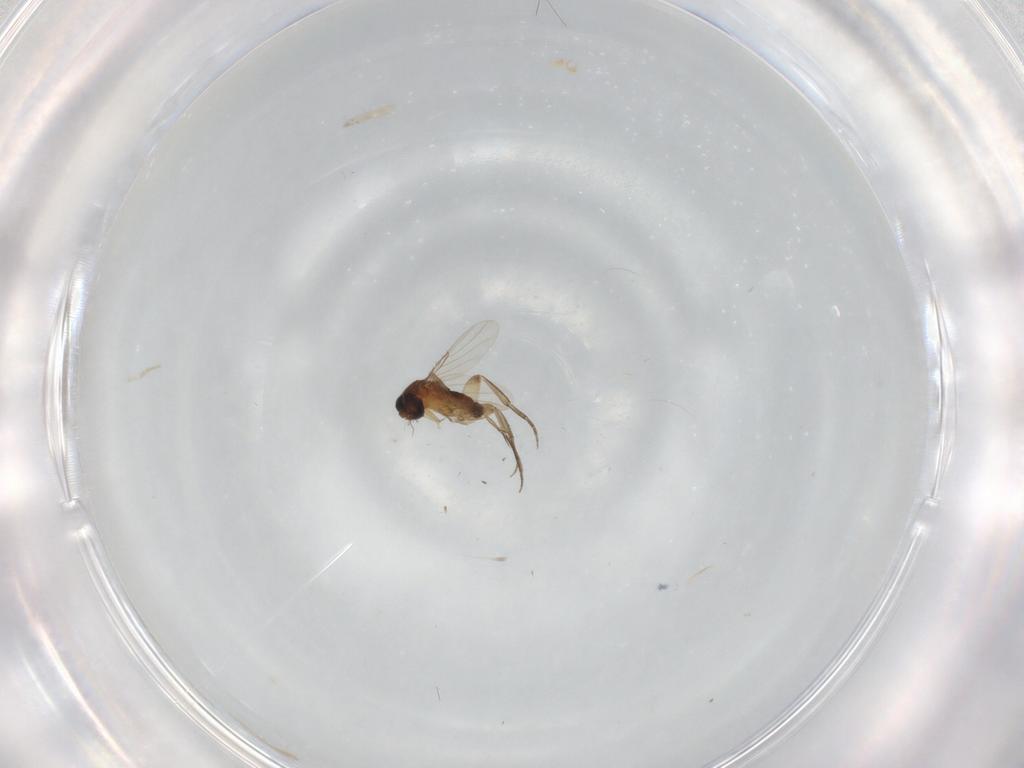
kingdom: Animalia
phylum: Arthropoda
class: Insecta
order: Diptera
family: Phoridae
